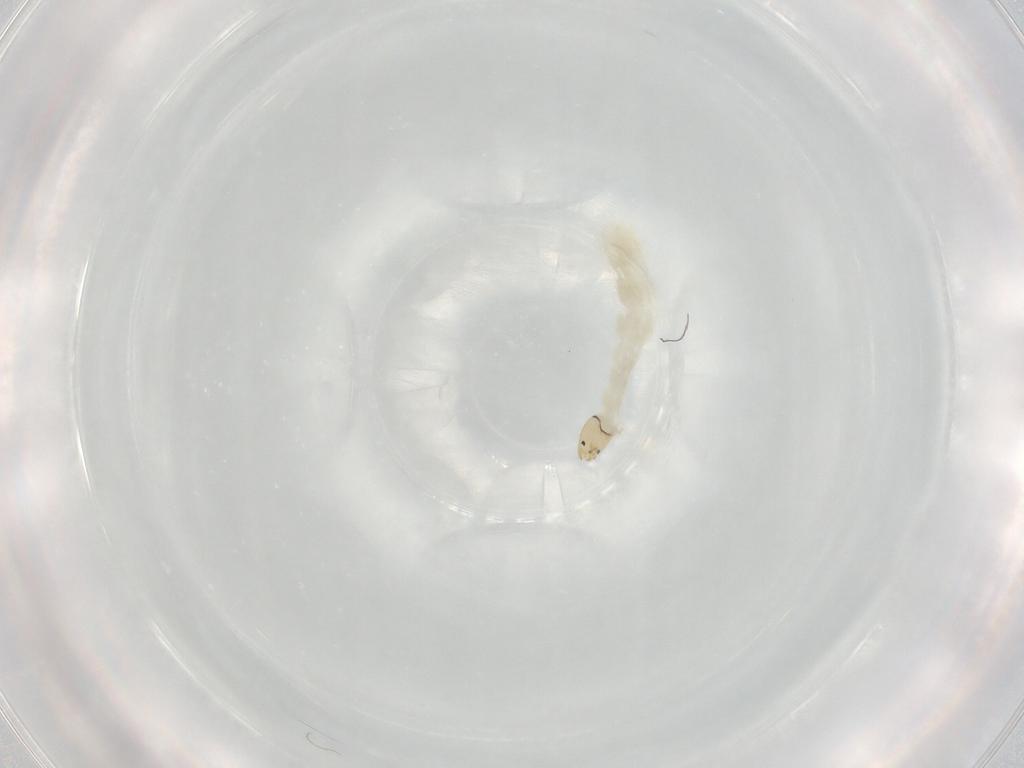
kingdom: Animalia
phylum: Arthropoda
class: Insecta
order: Diptera
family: Chironomidae
